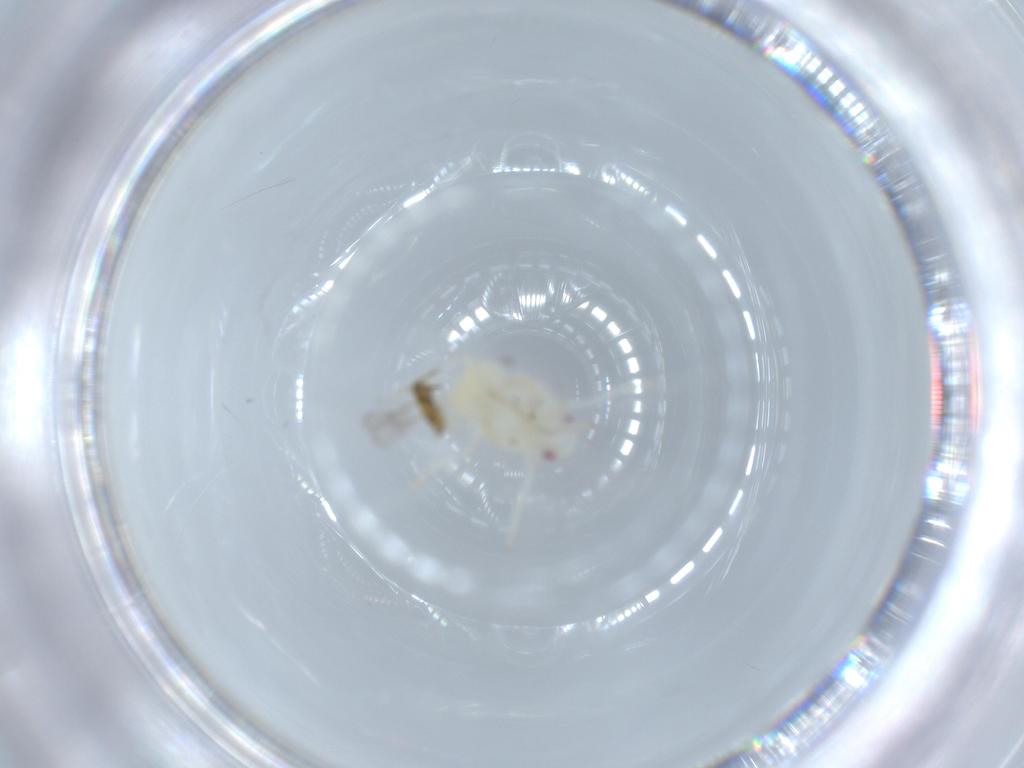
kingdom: Animalia
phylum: Arthropoda
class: Insecta
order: Hemiptera
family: Flatidae
